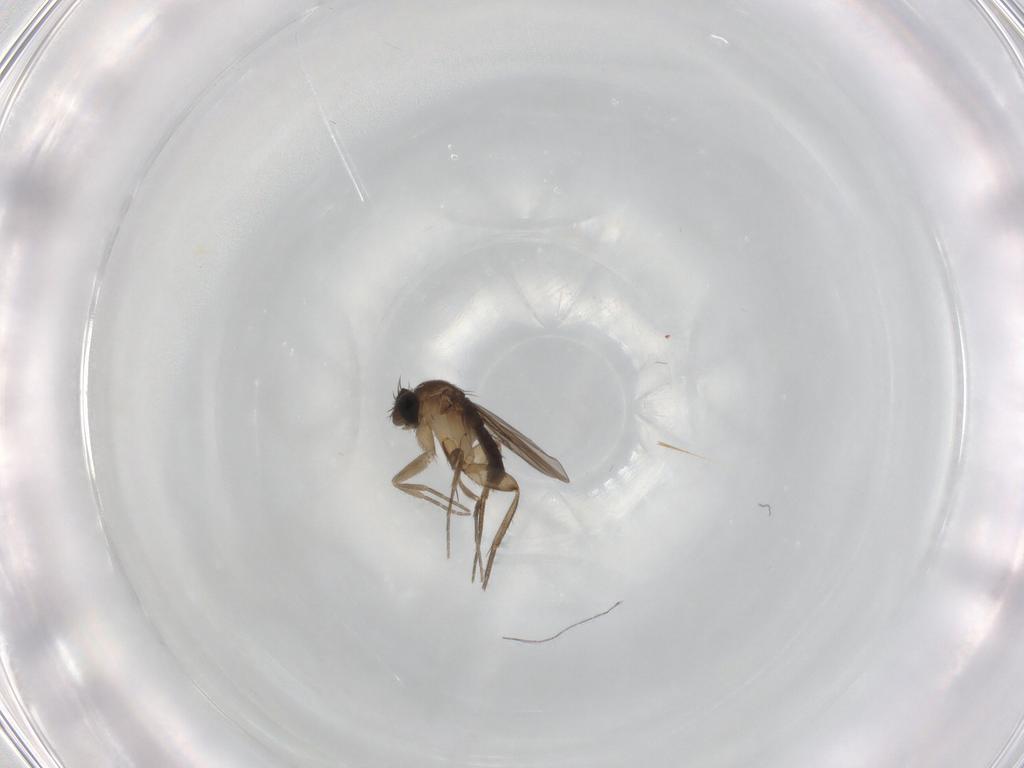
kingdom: Animalia
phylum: Arthropoda
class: Insecta
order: Diptera
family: Phoridae
